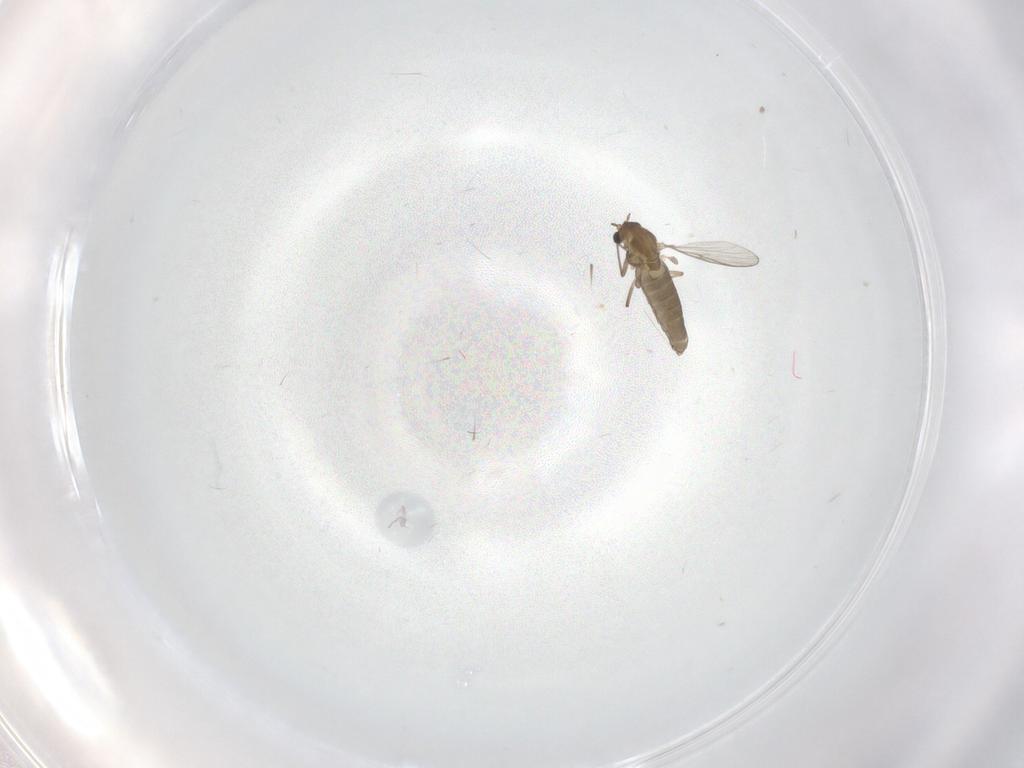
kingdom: Animalia
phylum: Arthropoda
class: Insecta
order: Diptera
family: Chironomidae
